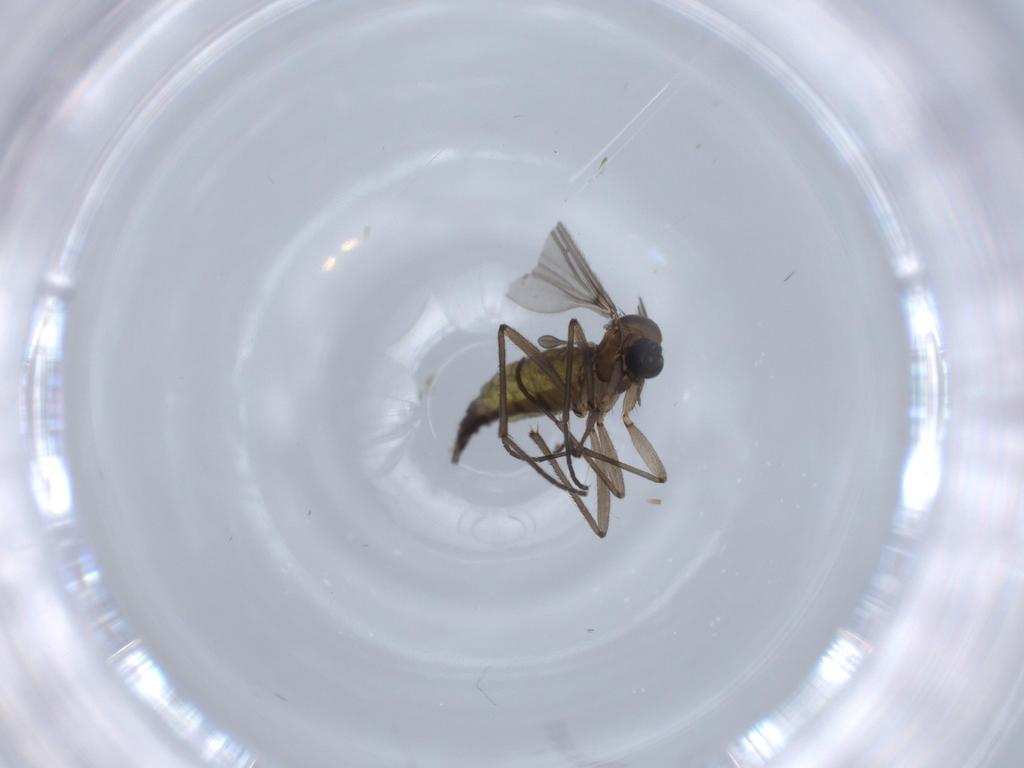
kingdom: Animalia
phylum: Arthropoda
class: Insecta
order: Diptera
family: Sciaridae
